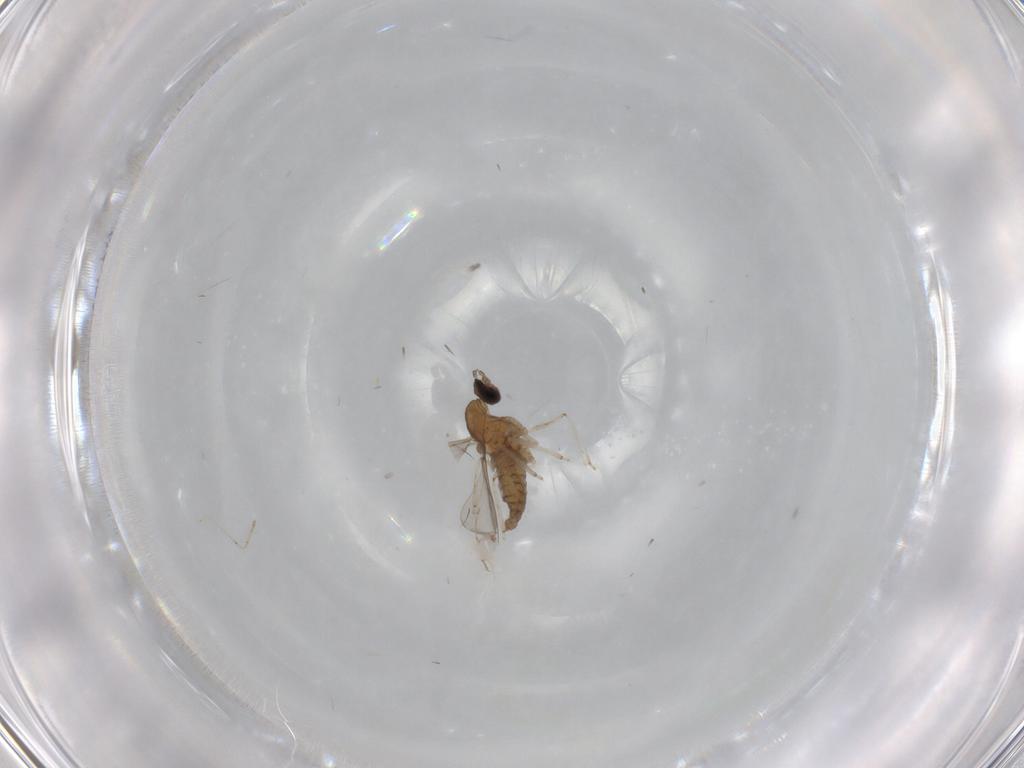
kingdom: Animalia
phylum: Arthropoda
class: Insecta
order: Diptera
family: Cecidomyiidae
